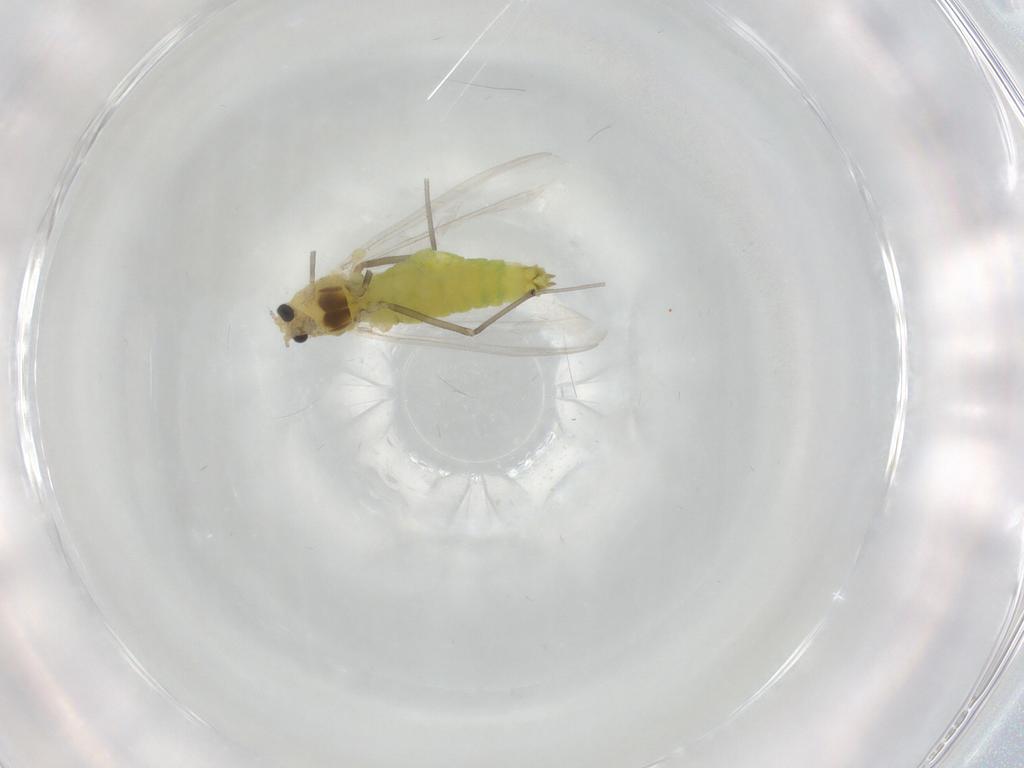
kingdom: Animalia
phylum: Arthropoda
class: Insecta
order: Diptera
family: Chironomidae
